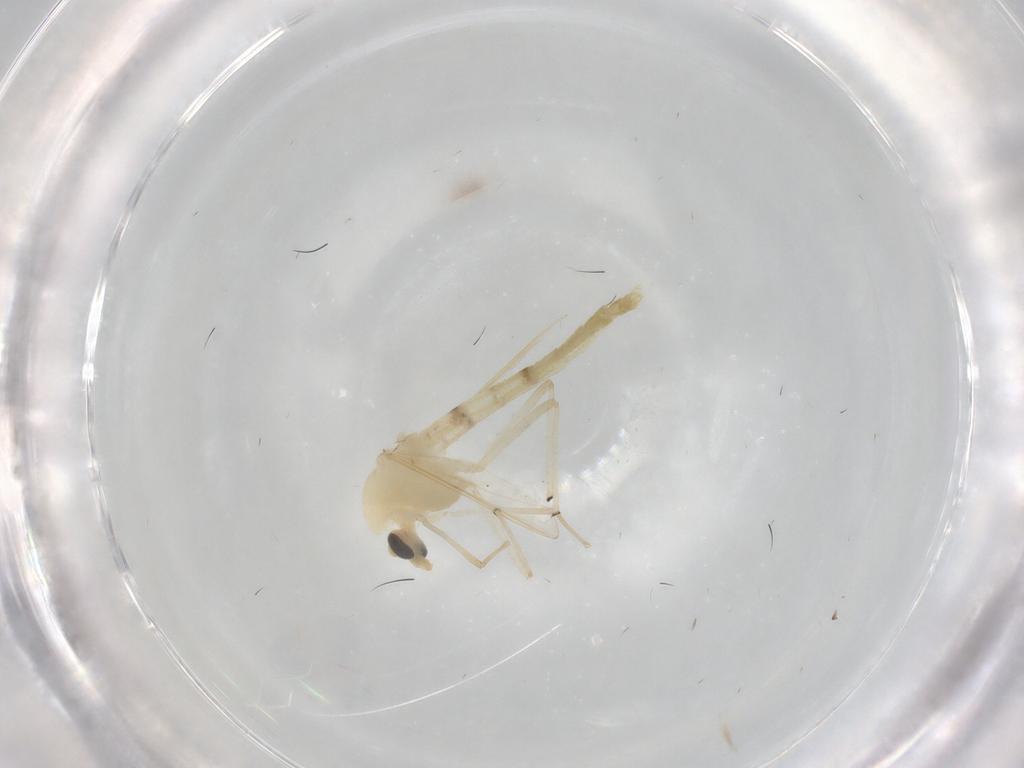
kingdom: Animalia
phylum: Arthropoda
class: Insecta
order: Diptera
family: Chironomidae
